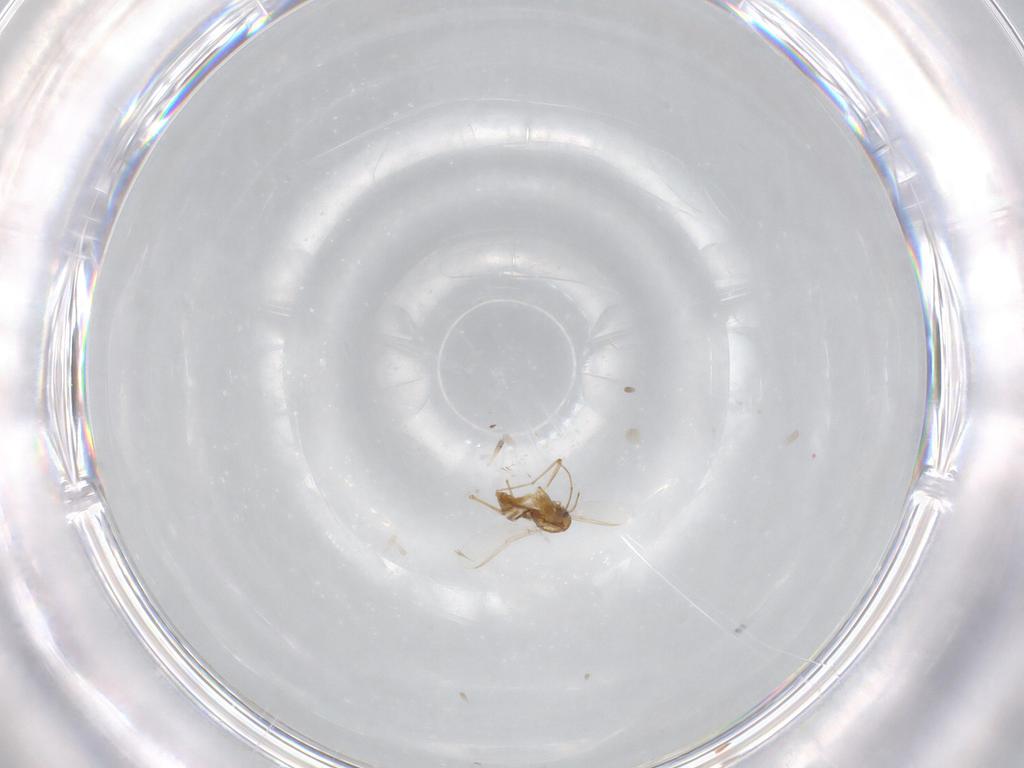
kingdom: Animalia
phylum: Arthropoda
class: Insecta
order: Diptera
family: Chironomidae
